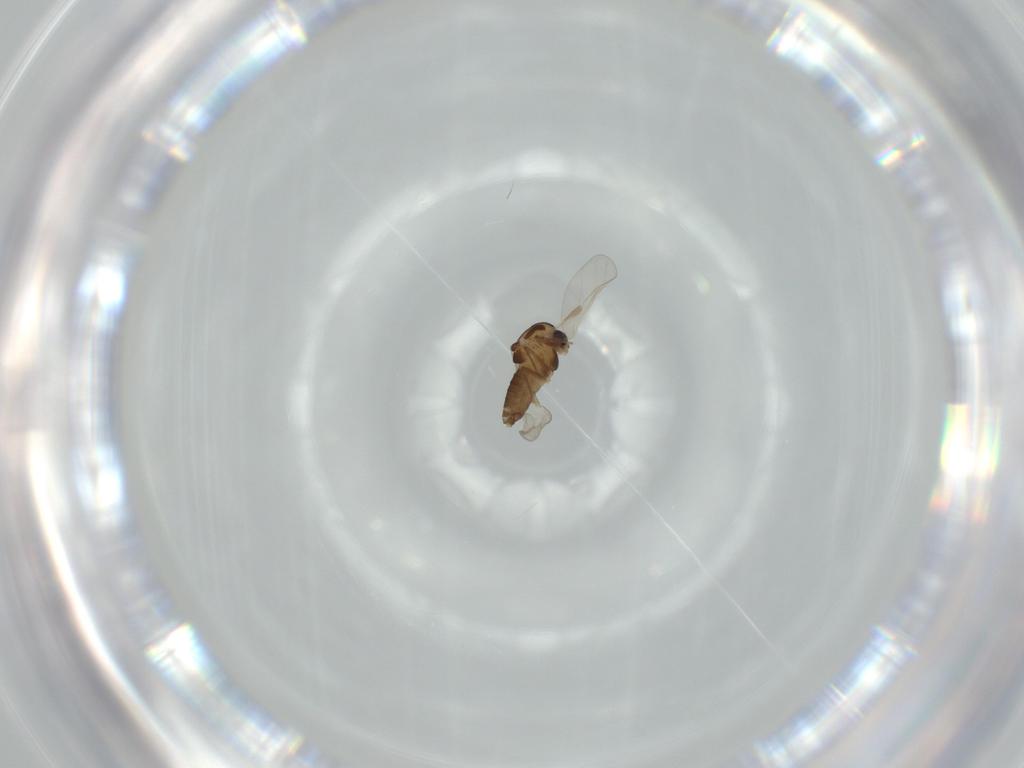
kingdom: Animalia
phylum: Arthropoda
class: Insecta
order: Diptera
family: Chironomidae
